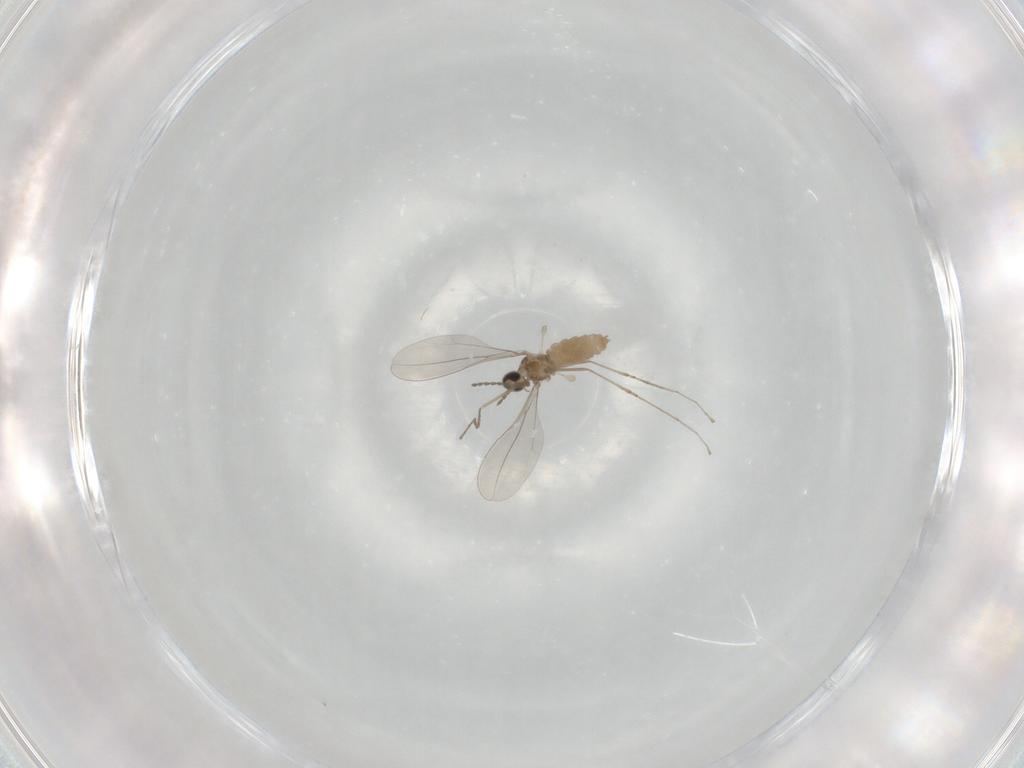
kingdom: Animalia
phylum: Arthropoda
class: Insecta
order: Diptera
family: Cecidomyiidae
